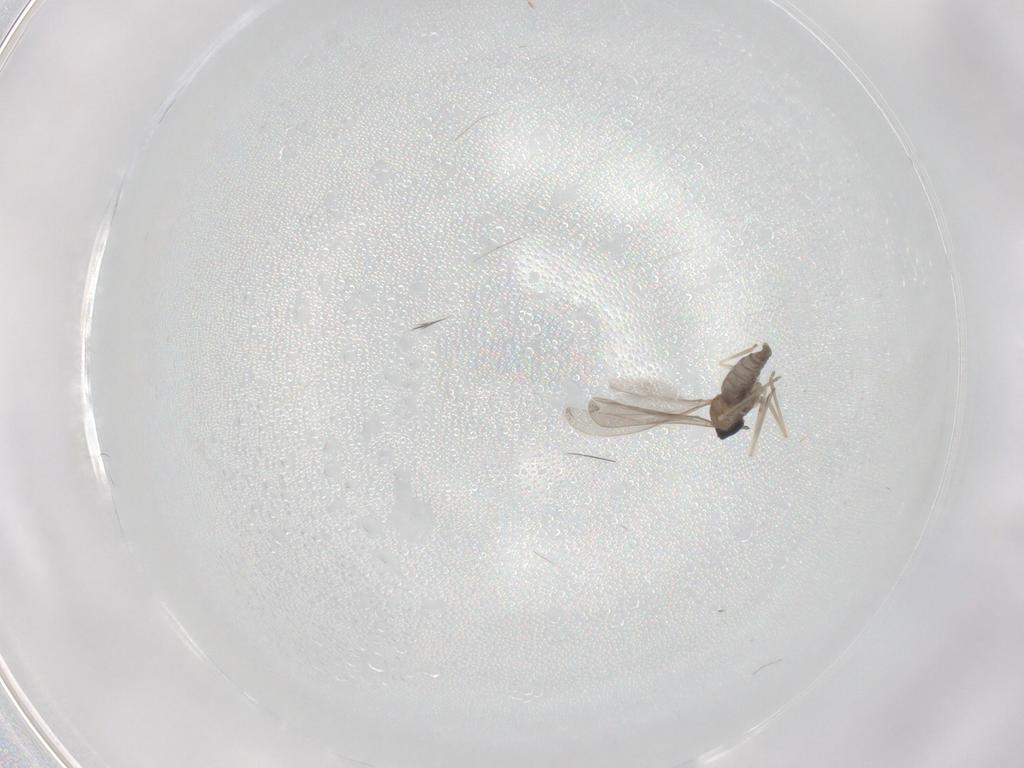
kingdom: Animalia
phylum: Arthropoda
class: Insecta
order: Diptera
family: Cecidomyiidae
